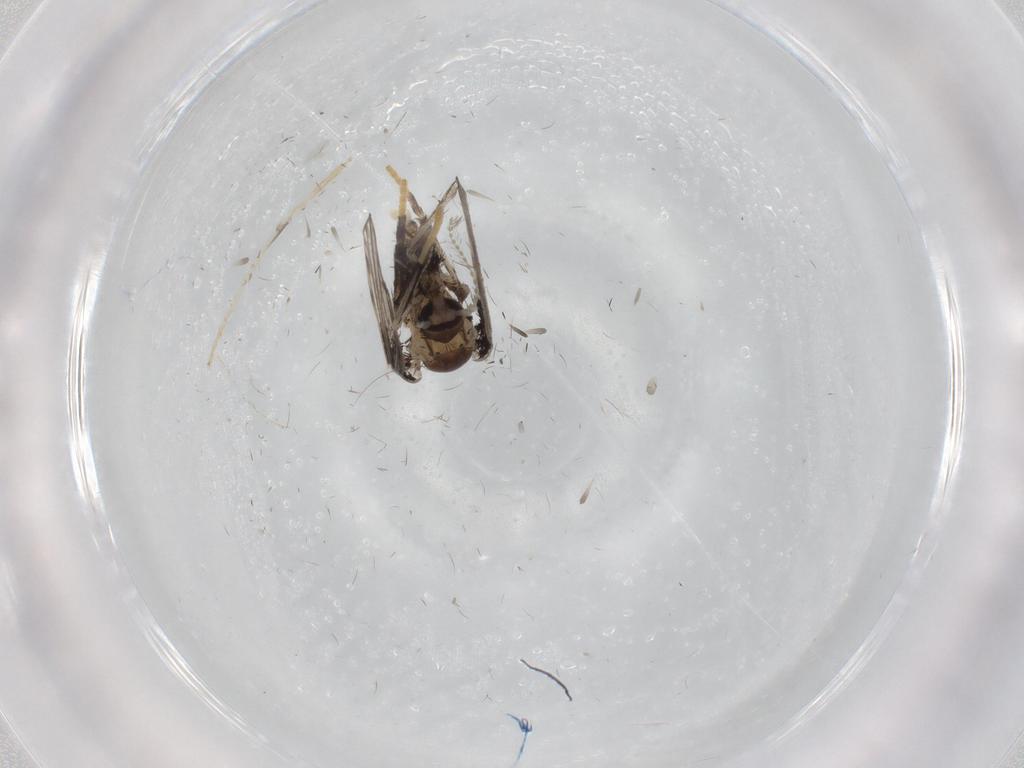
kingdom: Animalia
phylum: Arthropoda
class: Insecta
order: Diptera
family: Chironomidae
